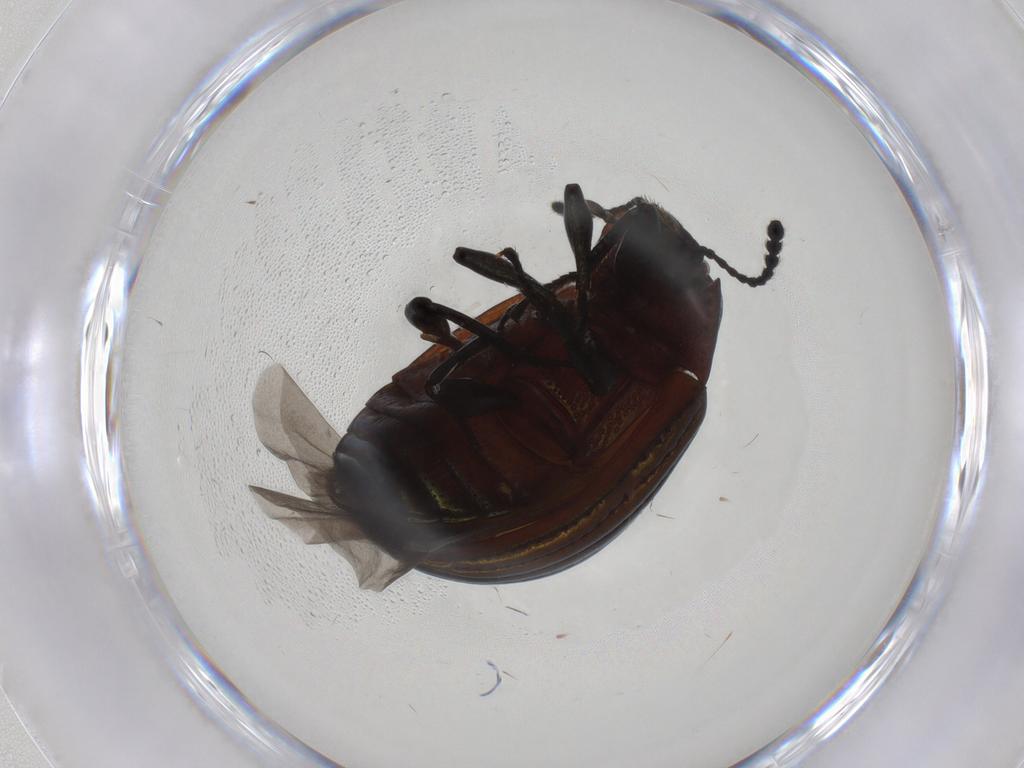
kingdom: Animalia
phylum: Arthropoda
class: Insecta
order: Coleoptera
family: Tenebrionidae
